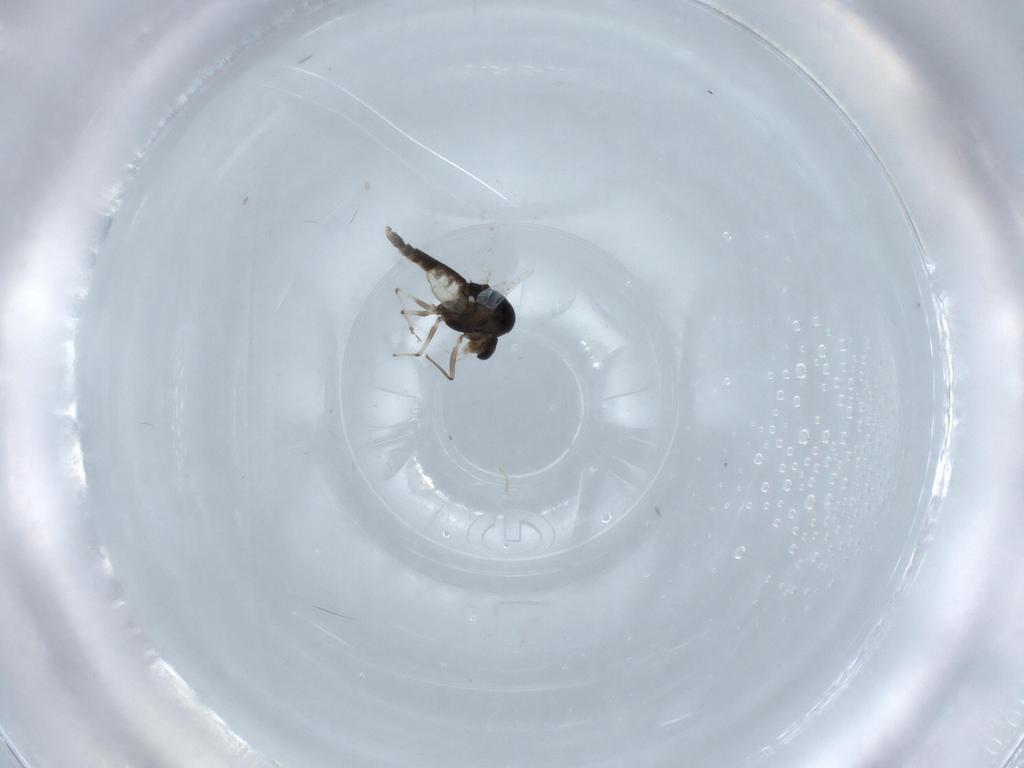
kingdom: Animalia
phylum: Arthropoda
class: Insecta
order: Diptera
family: Chironomidae
